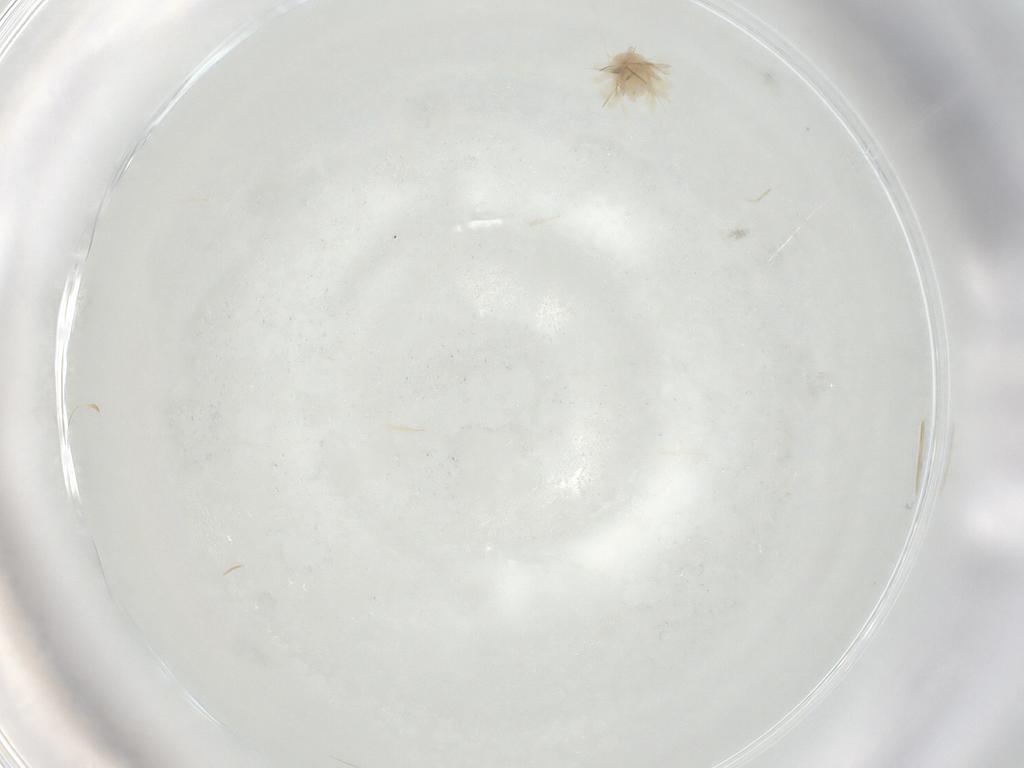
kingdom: Animalia
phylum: Arthropoda
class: Arachnida
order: Trombidiformes
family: Anystidae
